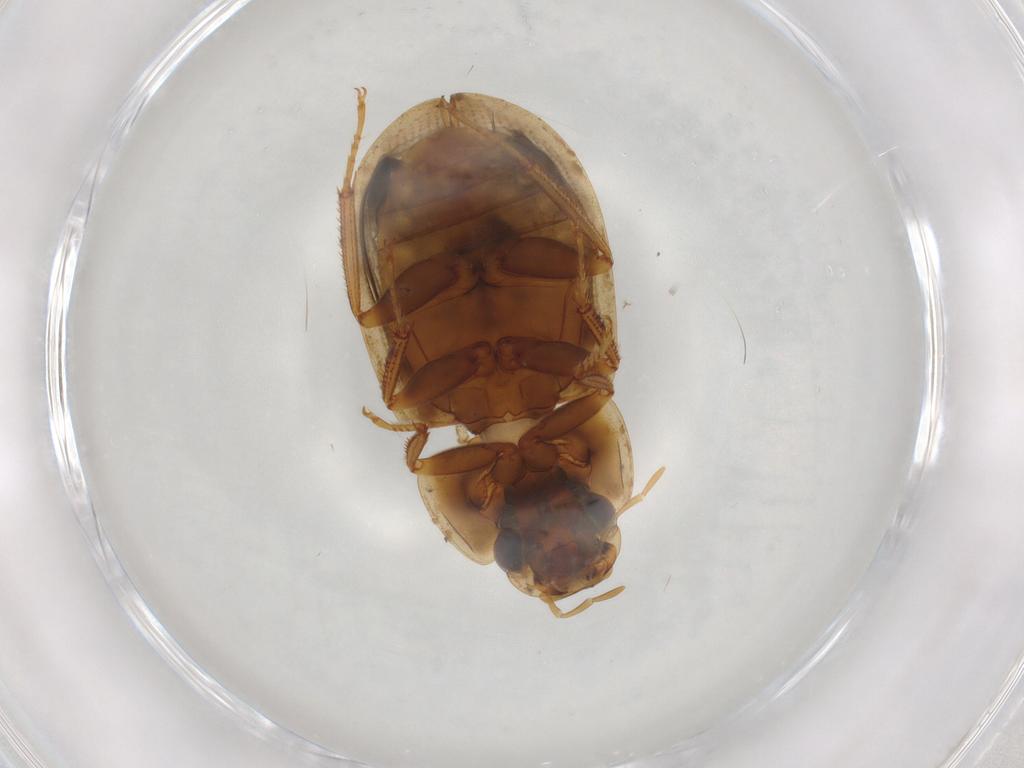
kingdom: Animalia
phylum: Arthropoda
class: Insecta
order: Coleoptera
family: Hydrophilidae
